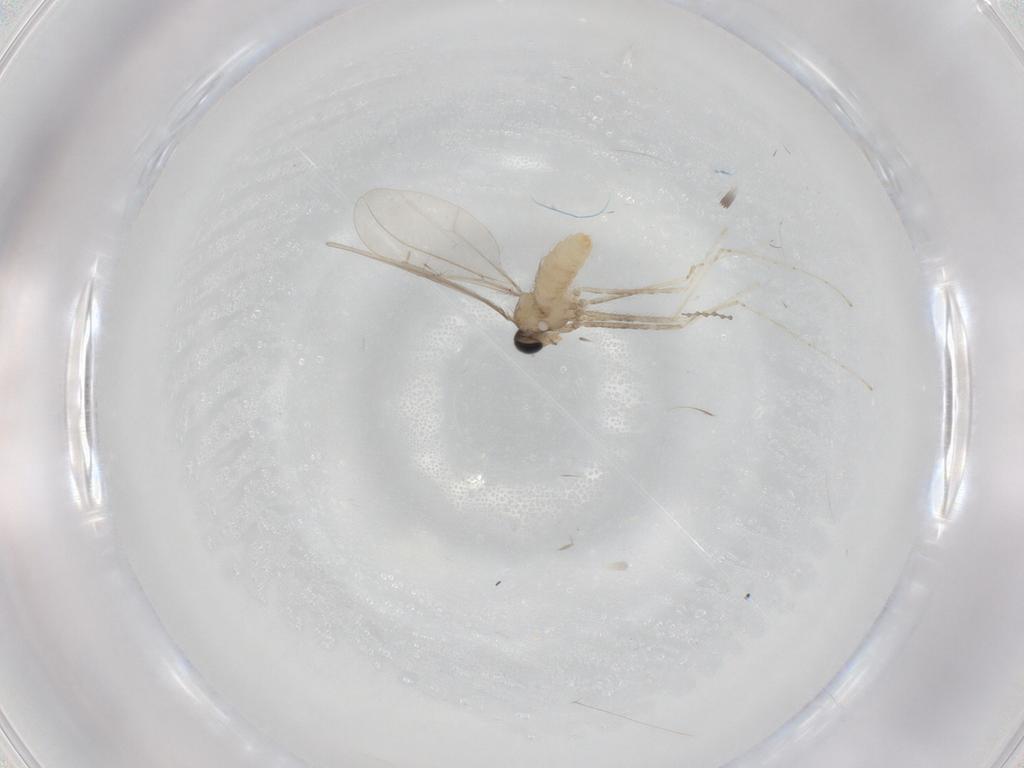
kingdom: Animalia
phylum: Arthropoda
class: Insecta
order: Diptera
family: Cecidomyiidae
